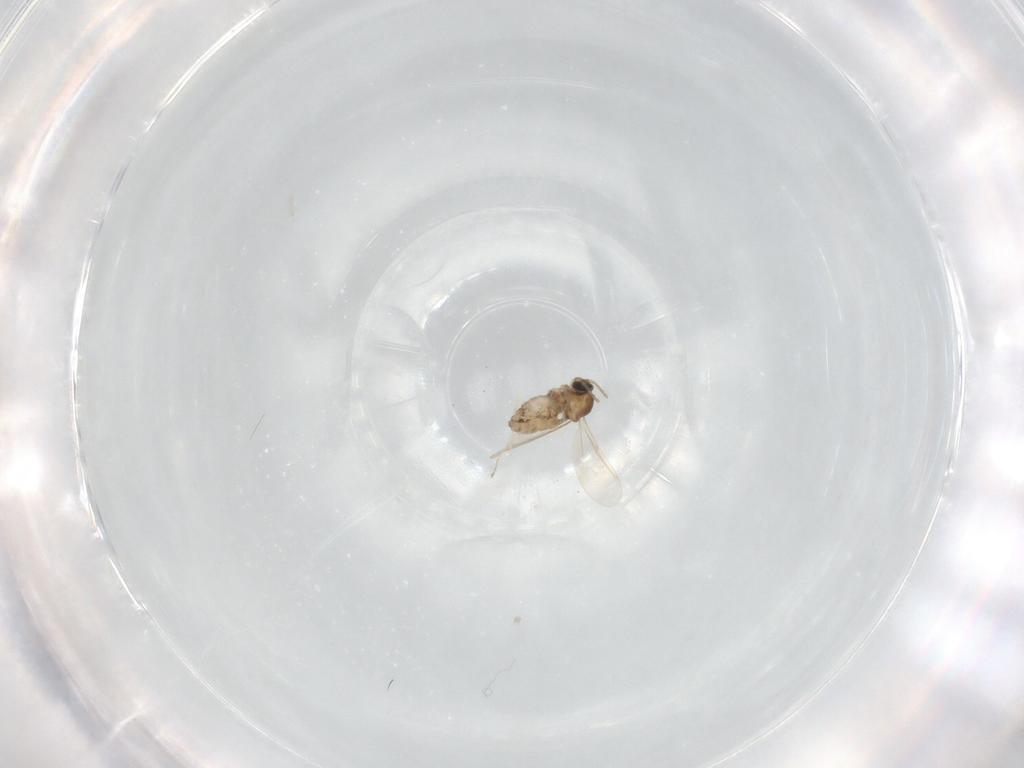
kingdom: Animalia
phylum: Arthropoda
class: Insecta
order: Diptera
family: Cecidomyiidae
